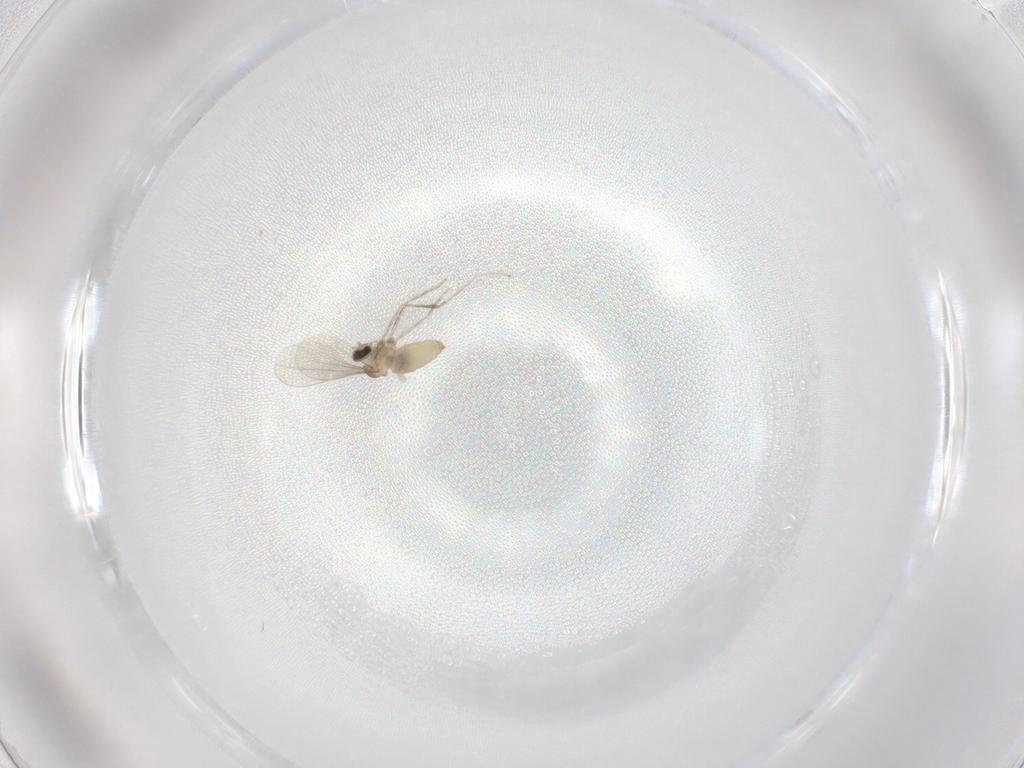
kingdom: Animalia
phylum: Arthropoda
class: Insecta
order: Diptera
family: Cecidomyiidae
